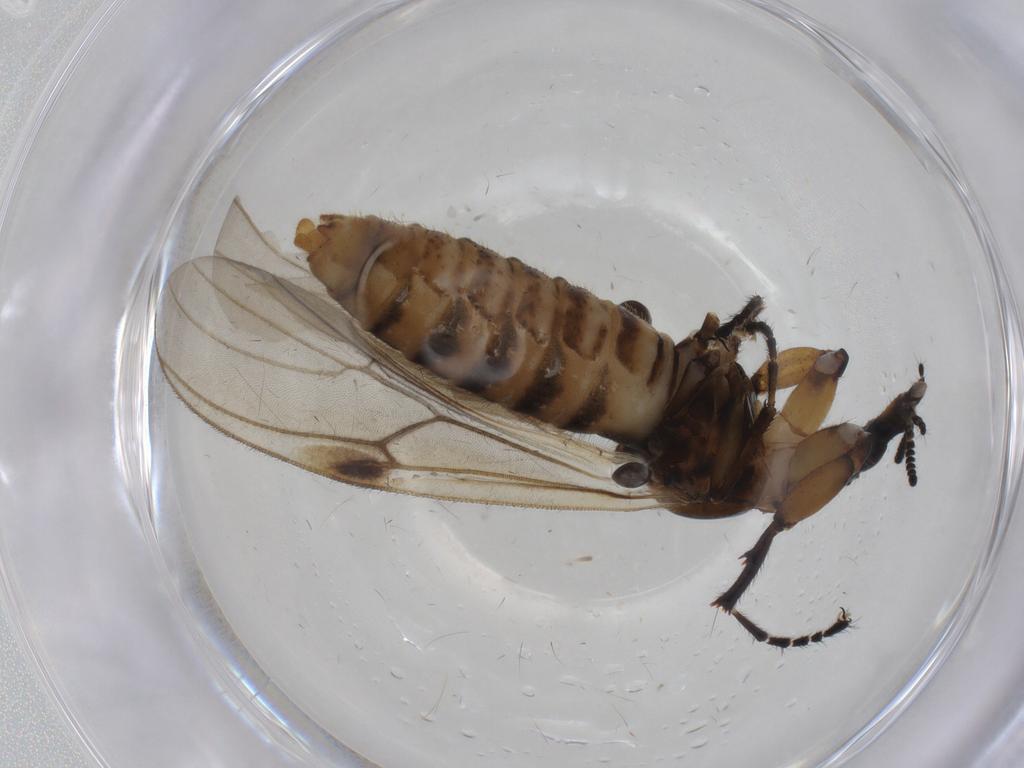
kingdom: Animalia
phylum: Arthropoda
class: Insecta
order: Diptera
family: Bibionidae
